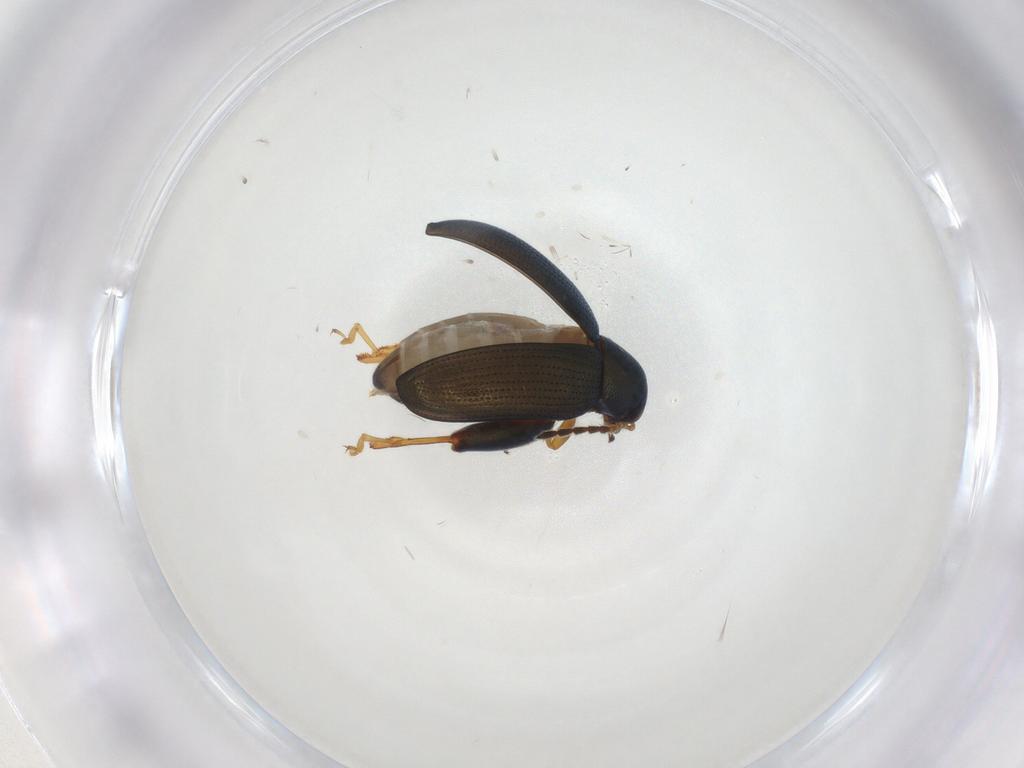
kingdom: Animalia
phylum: Arthropoda
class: Insecta
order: Coleoptera
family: Chrysomelidae
